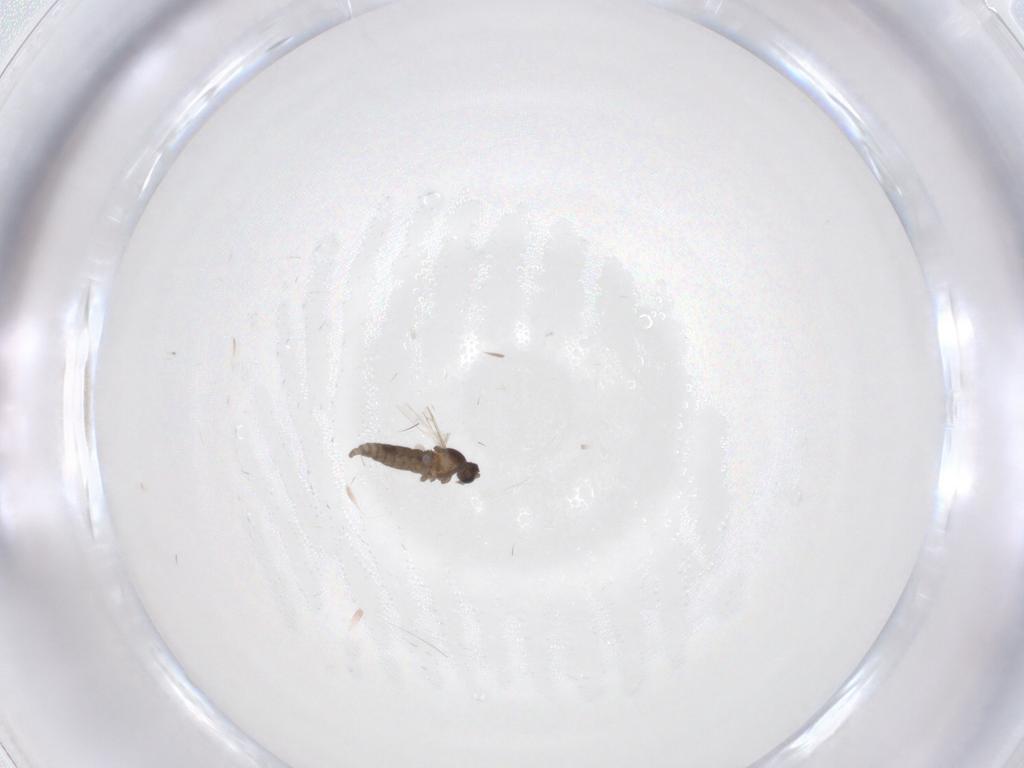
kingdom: Animalia
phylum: Arthropoda
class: Insecta
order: Diptera
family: Cecidomyiidae
